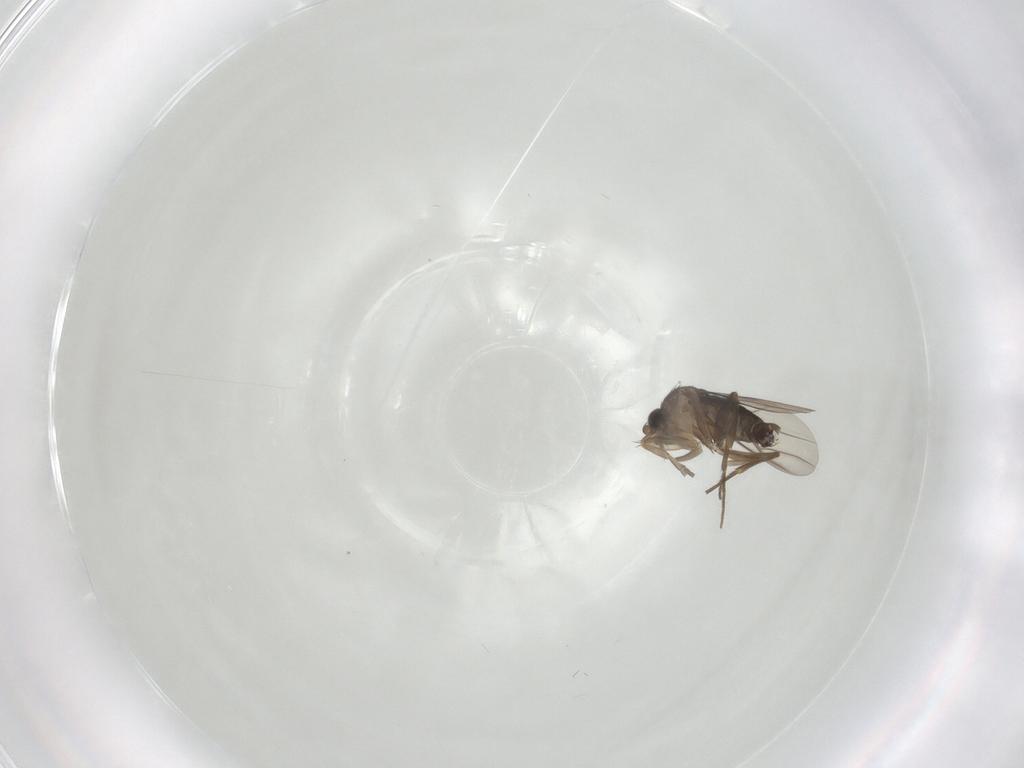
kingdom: Animalia
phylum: Arthropoda
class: Insecta
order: Diptera
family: Phoridae
